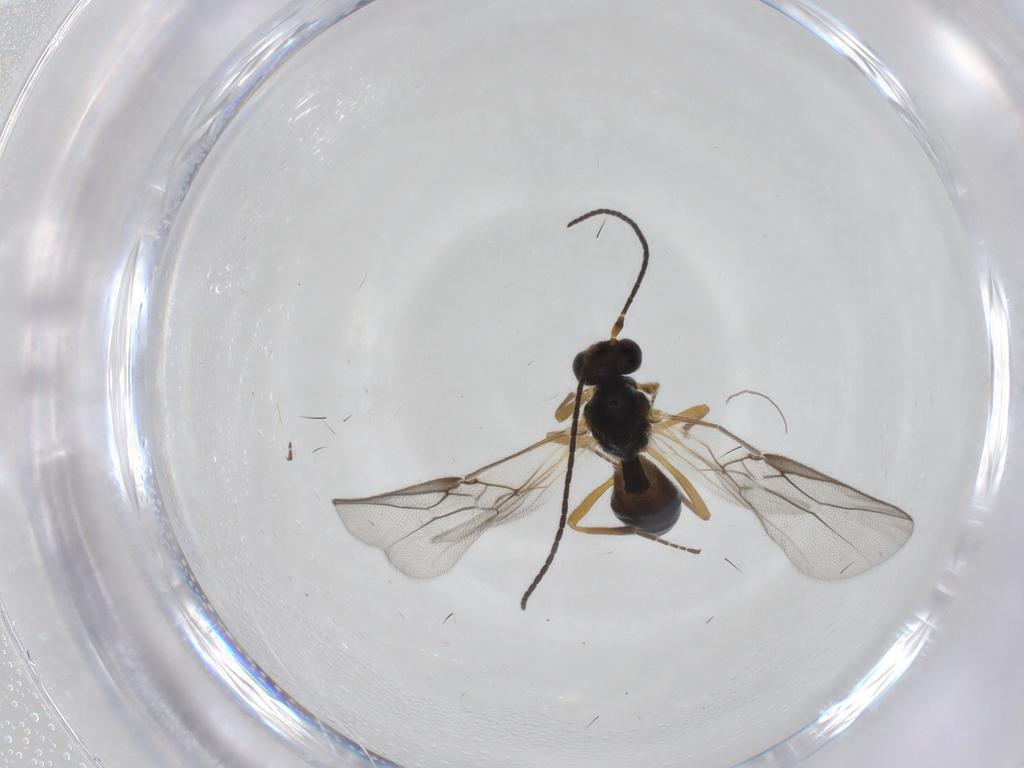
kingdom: Animalia
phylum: Arthropoda
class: Insecta
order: Hymenoptera
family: Braconidae
